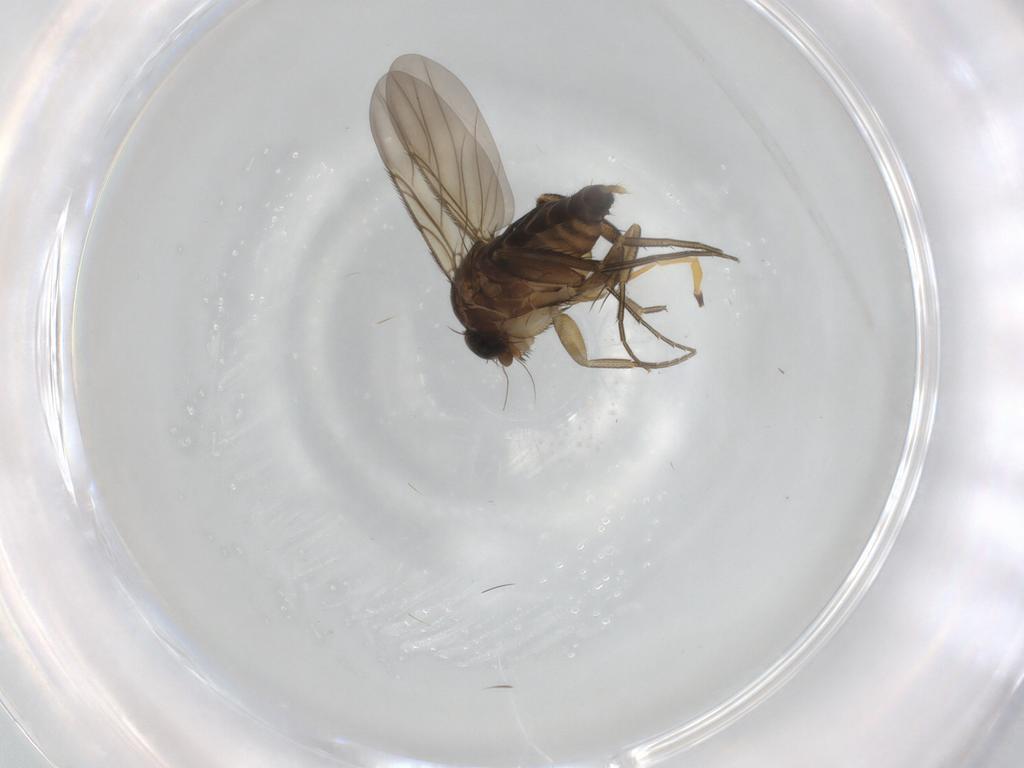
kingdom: Animalia
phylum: Arthropoda
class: Insecta
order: Diptera
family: Phoridae
